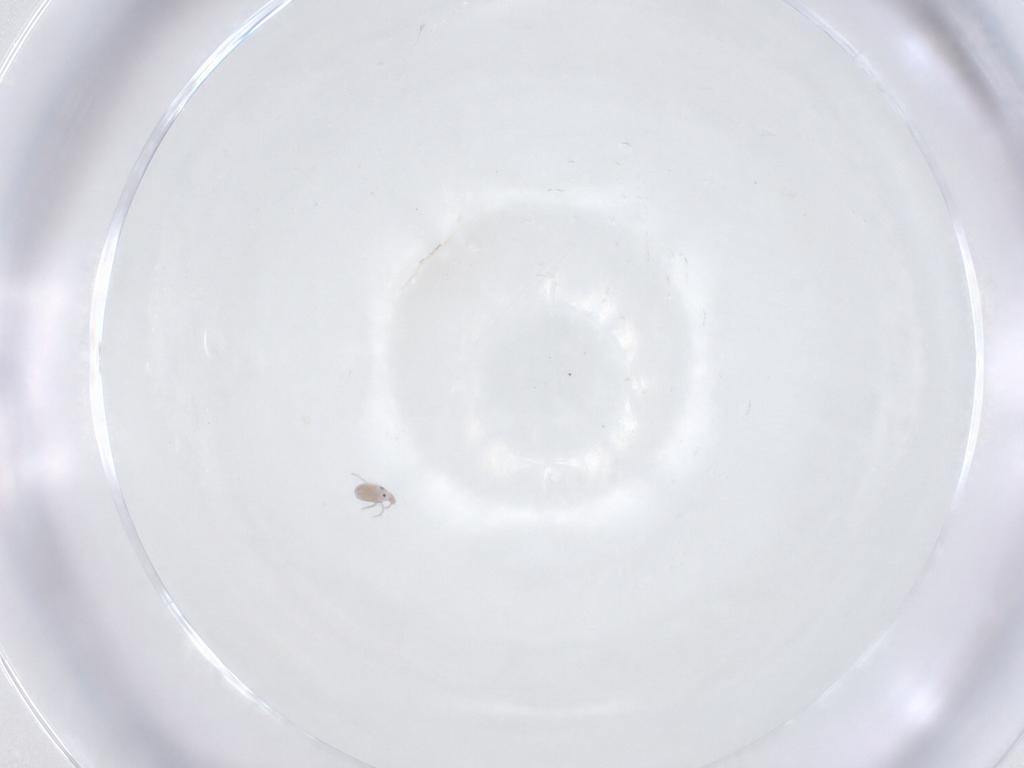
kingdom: Animalia
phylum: Arthropoda
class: Arachnida
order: Trombidiformes
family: Pionidae
